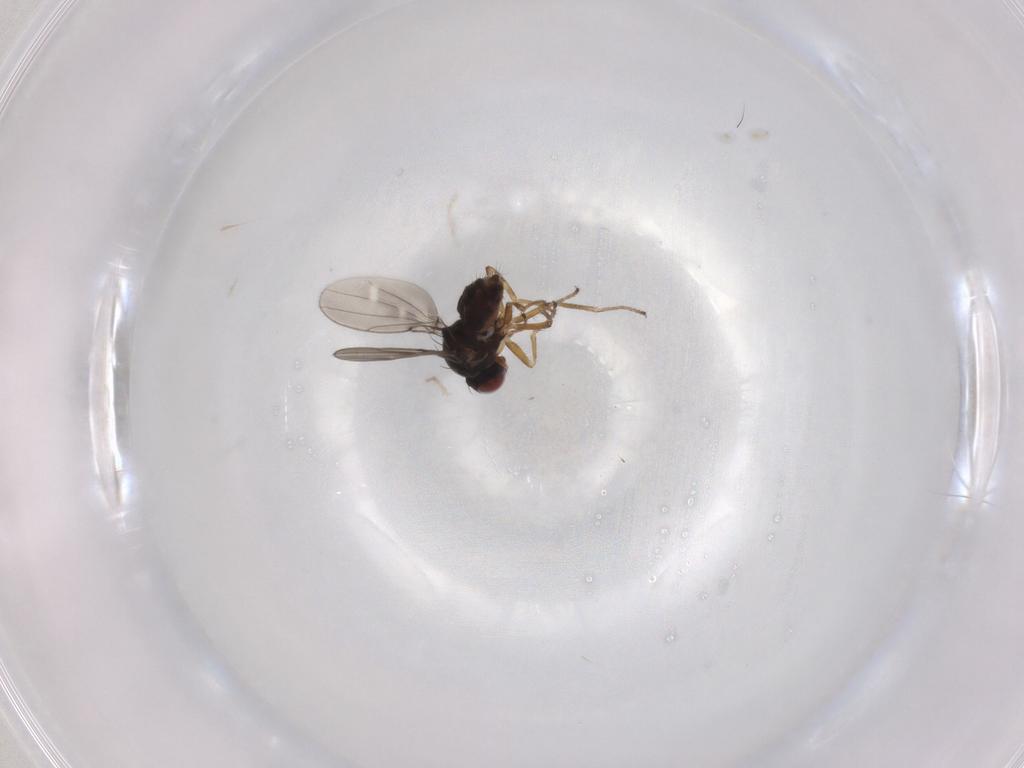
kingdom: Animalia
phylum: Arthropoda
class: Insecta
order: Diptera
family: Ephydridae
